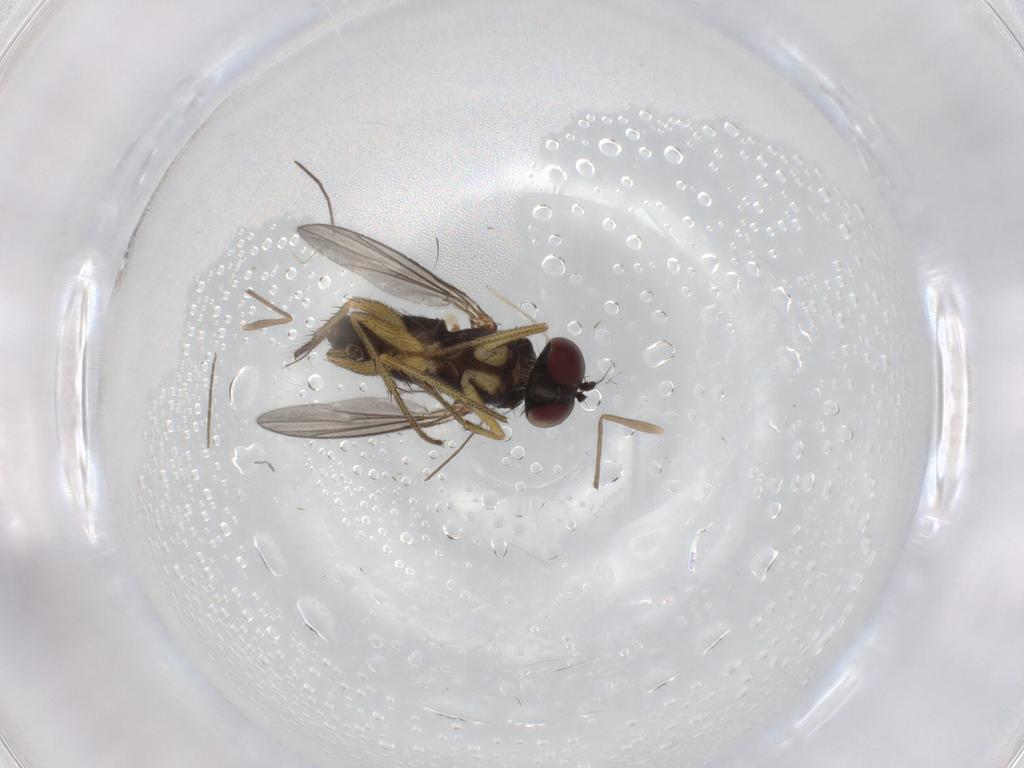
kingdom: Animalia
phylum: Arthropoda
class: Insecta
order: Diptera
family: Chironomidae
